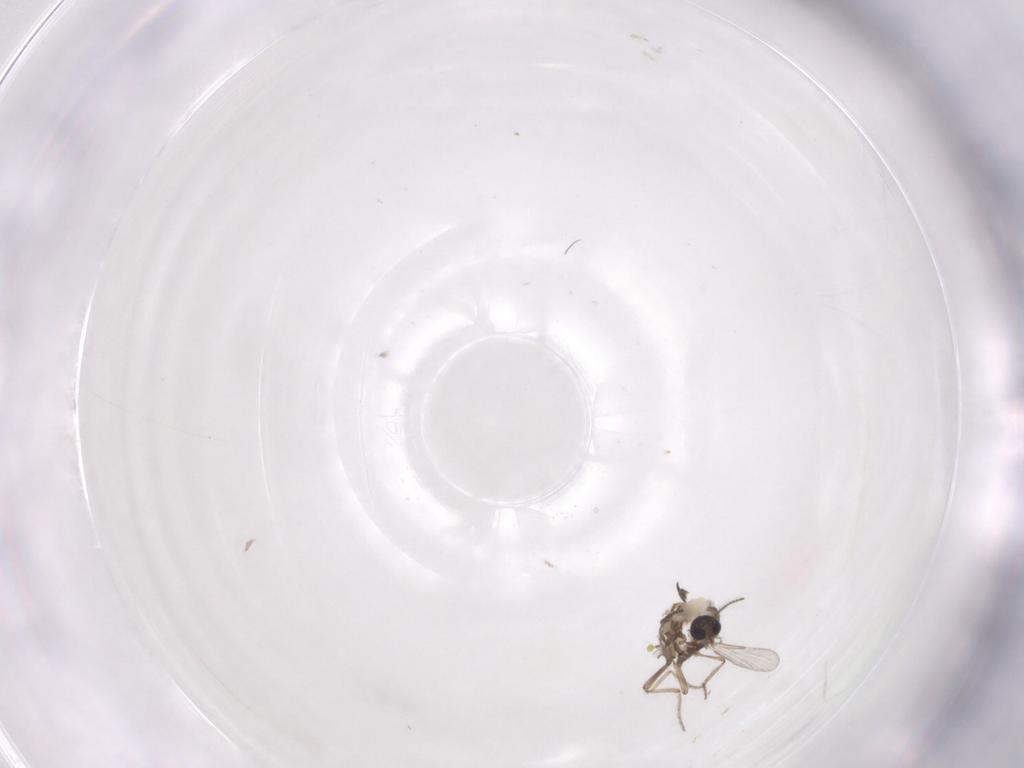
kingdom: Animalia
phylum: Arthropoda
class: Insecta
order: Diptera
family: Ceratopogonidae
